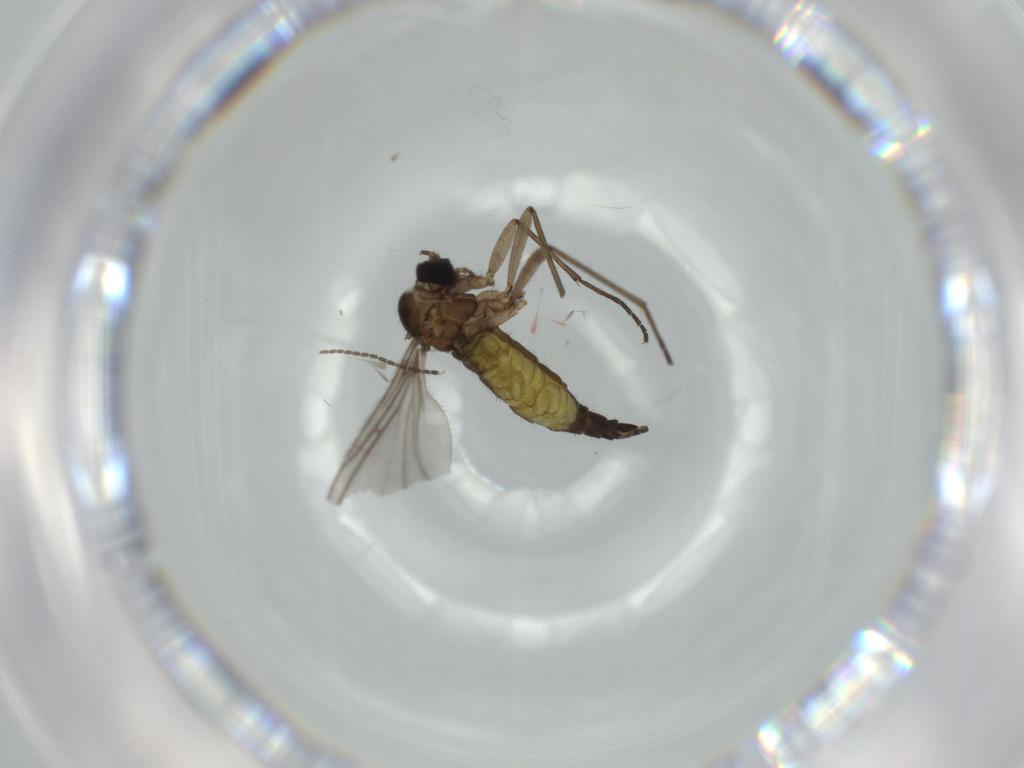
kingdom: Animalia
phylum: Arthropoda
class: Insecta
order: Diptera
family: Sciaridae
